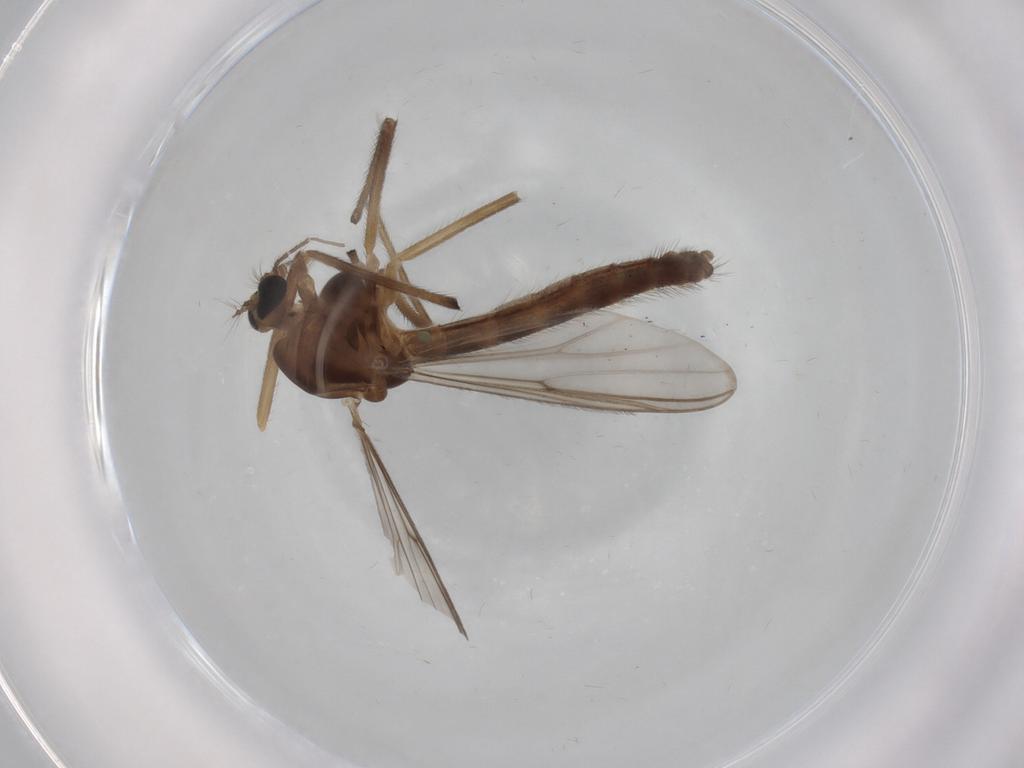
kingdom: Animalia
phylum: Arthropoda
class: Insecta
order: Diptera
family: Chironomidae
